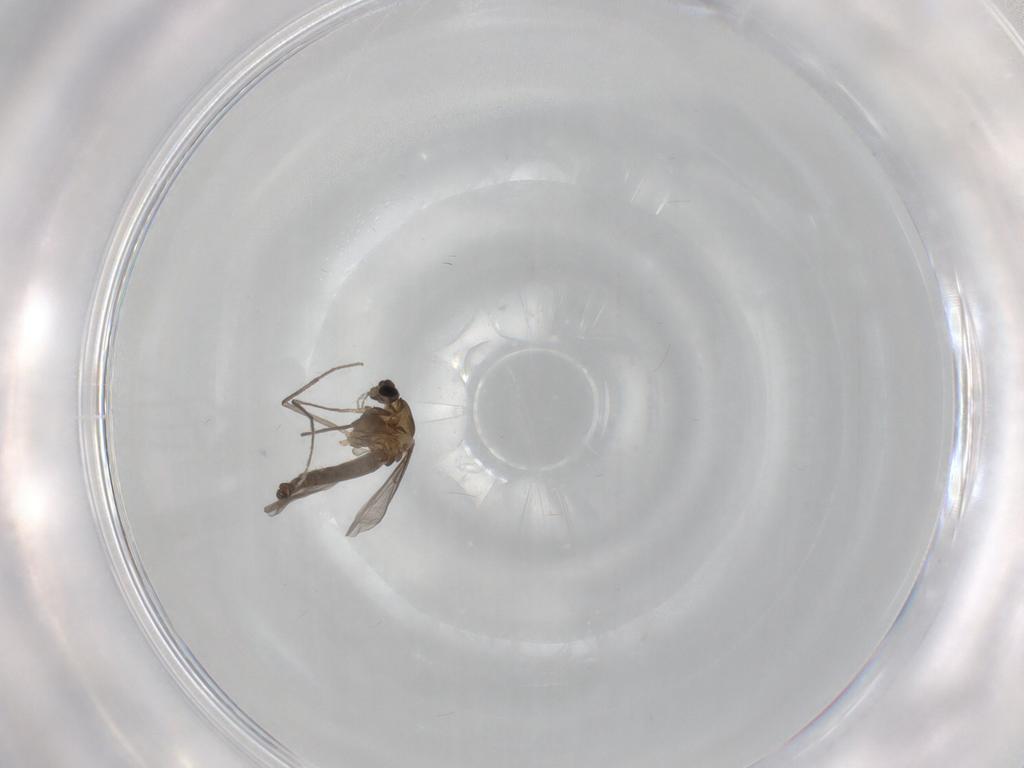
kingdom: Animalia
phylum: Arthropoda
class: Insecta
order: Diptera
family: Chironomidae
